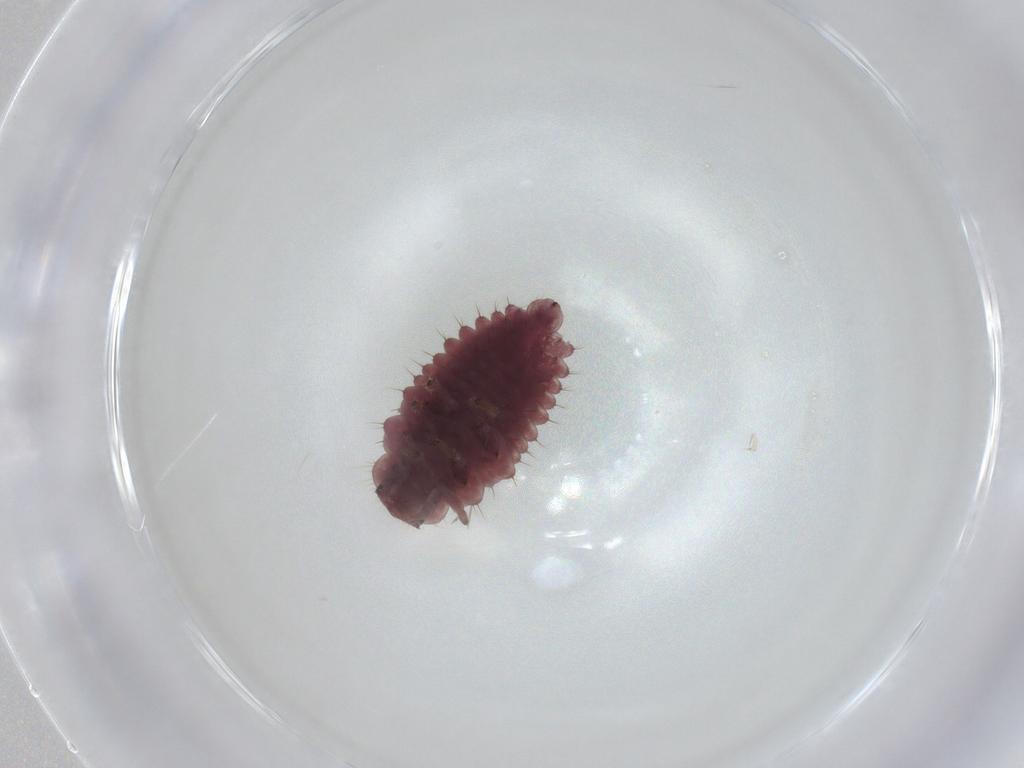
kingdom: Animalia
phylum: Arthropoda
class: Insecta
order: Coleoptera
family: Coccinellidae
